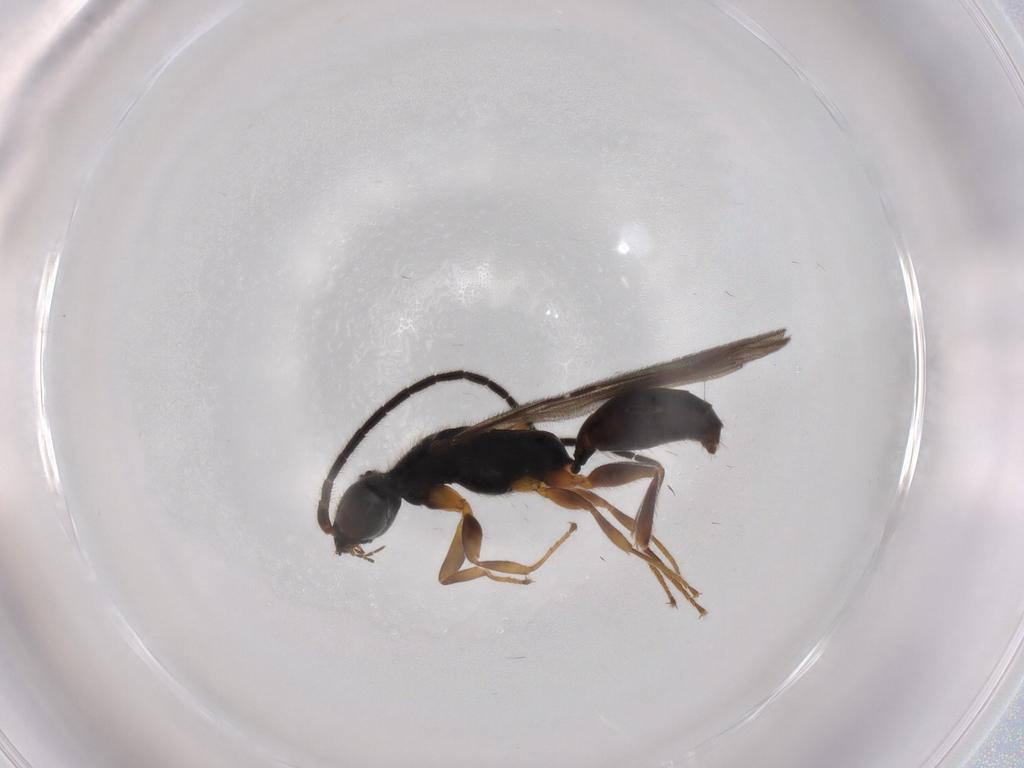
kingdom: Animalia
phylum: Arthropoda
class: Insecta
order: Hymenoptera
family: Bethylidae
